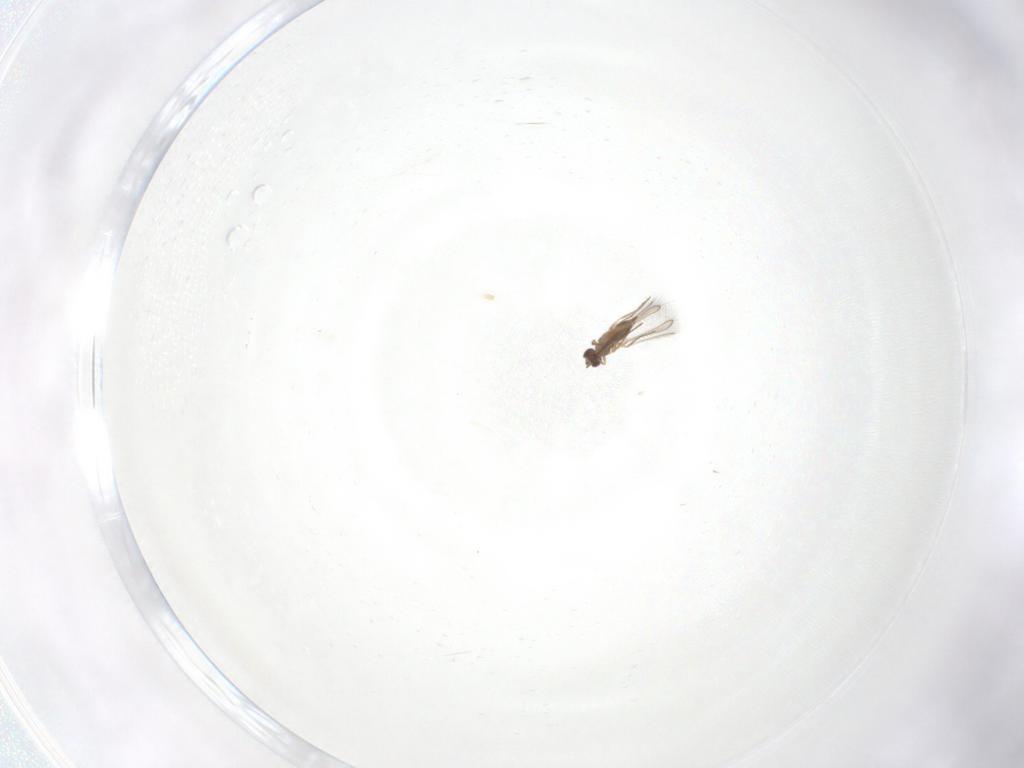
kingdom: Animalia
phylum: Arthropoda
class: Insecta
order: Hymenoptera
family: Mymaridae
